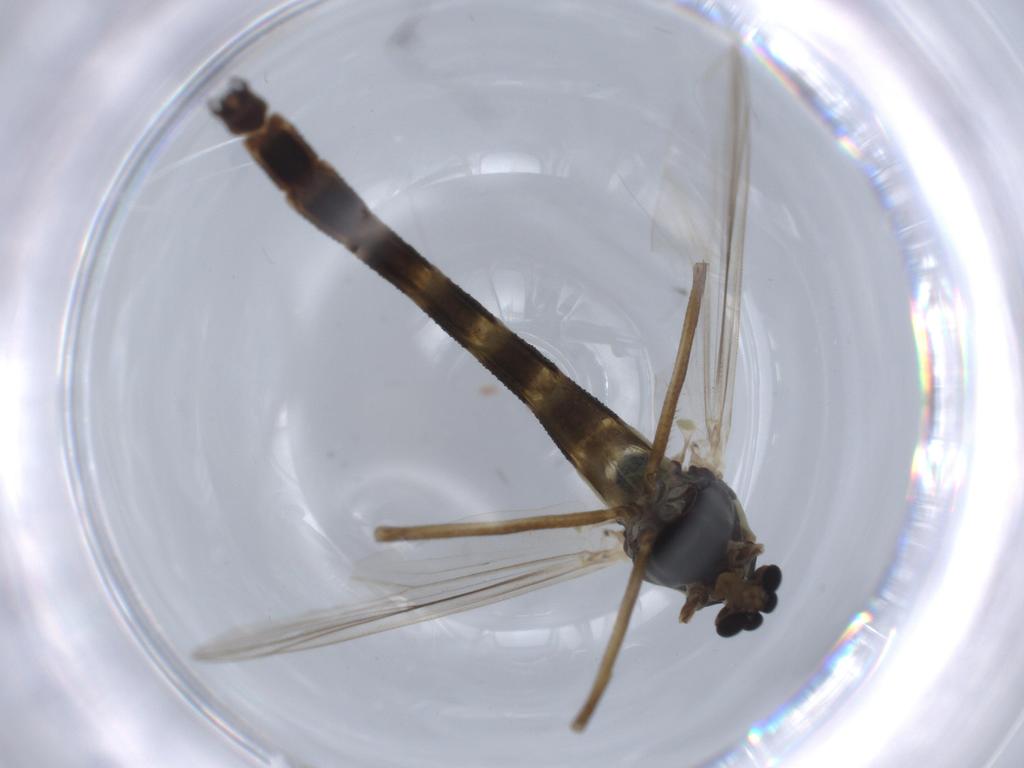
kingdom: Animalia
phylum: Arthropoda
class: Insecta
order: Diptera
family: Chironomidae
